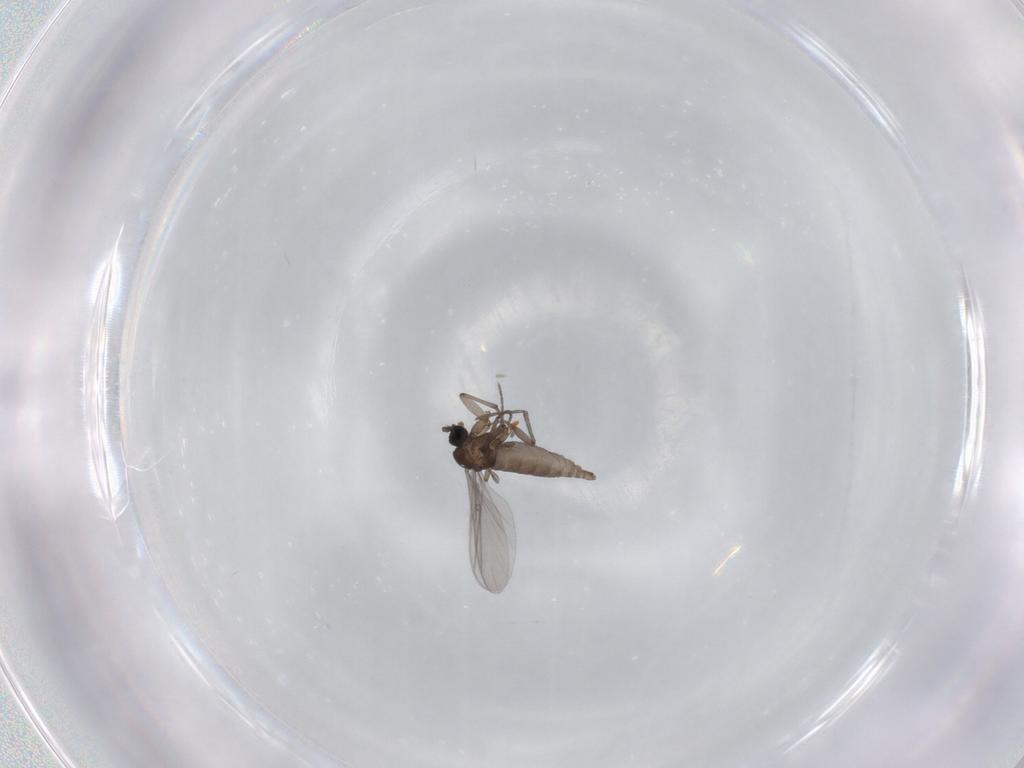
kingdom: Animalia
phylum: Arthropoda
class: Insecta
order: Diptera
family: Sciaridae
